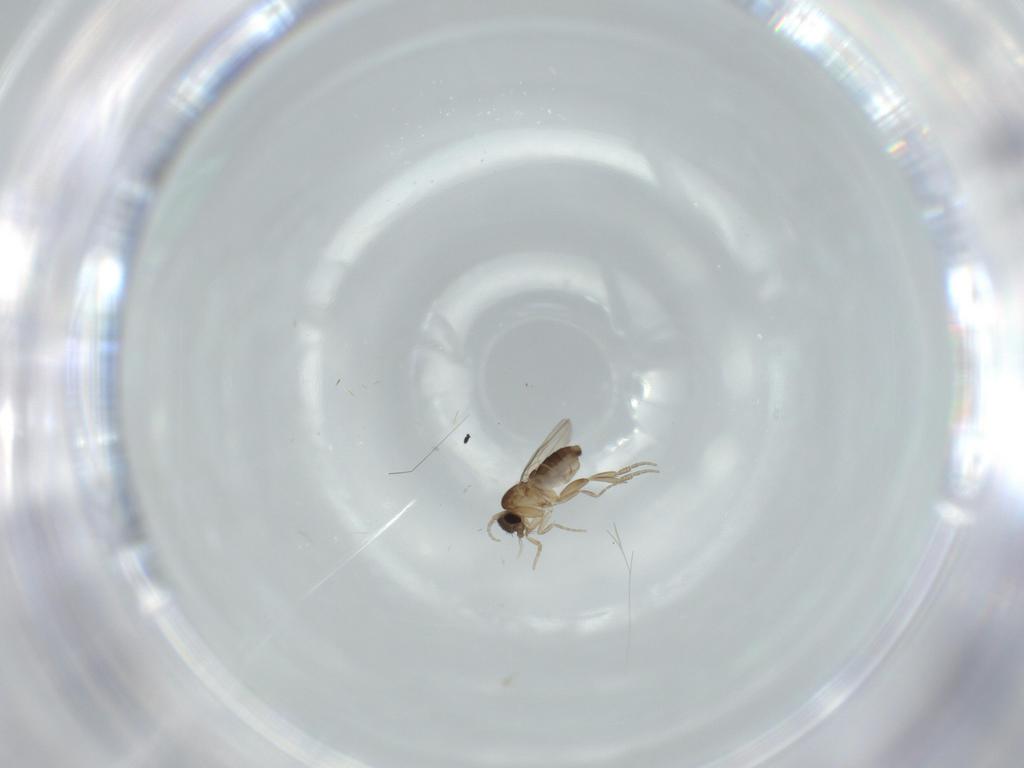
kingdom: Animalia
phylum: Arthropoda
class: Insecta
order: Diptera
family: Phoridae
